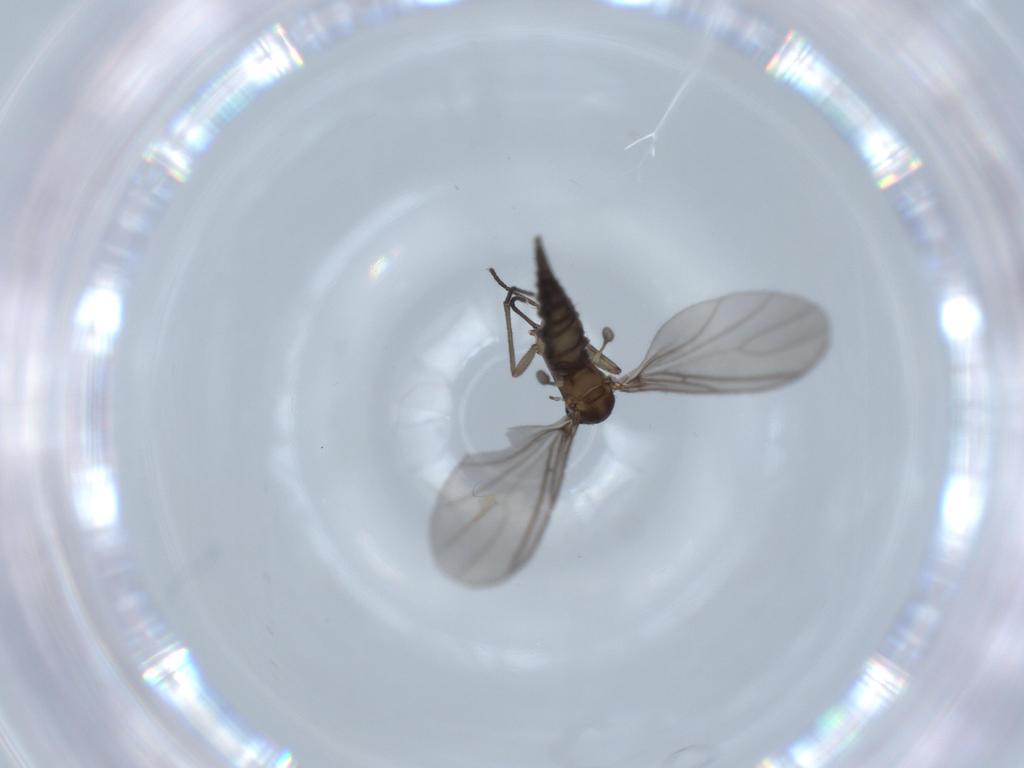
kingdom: Animalia
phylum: Arthropoda
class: Insecta
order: Diptera
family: Sciaridae
